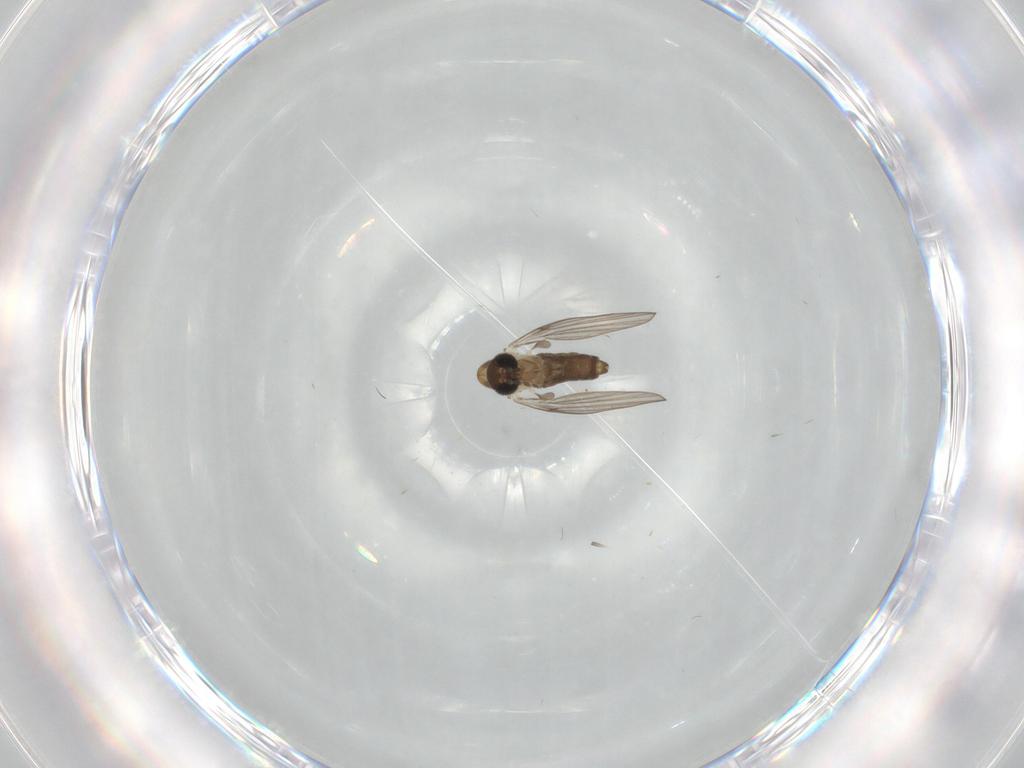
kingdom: Animalia
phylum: Arthropoda
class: Insecta
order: Diptera
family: Psychodidae
